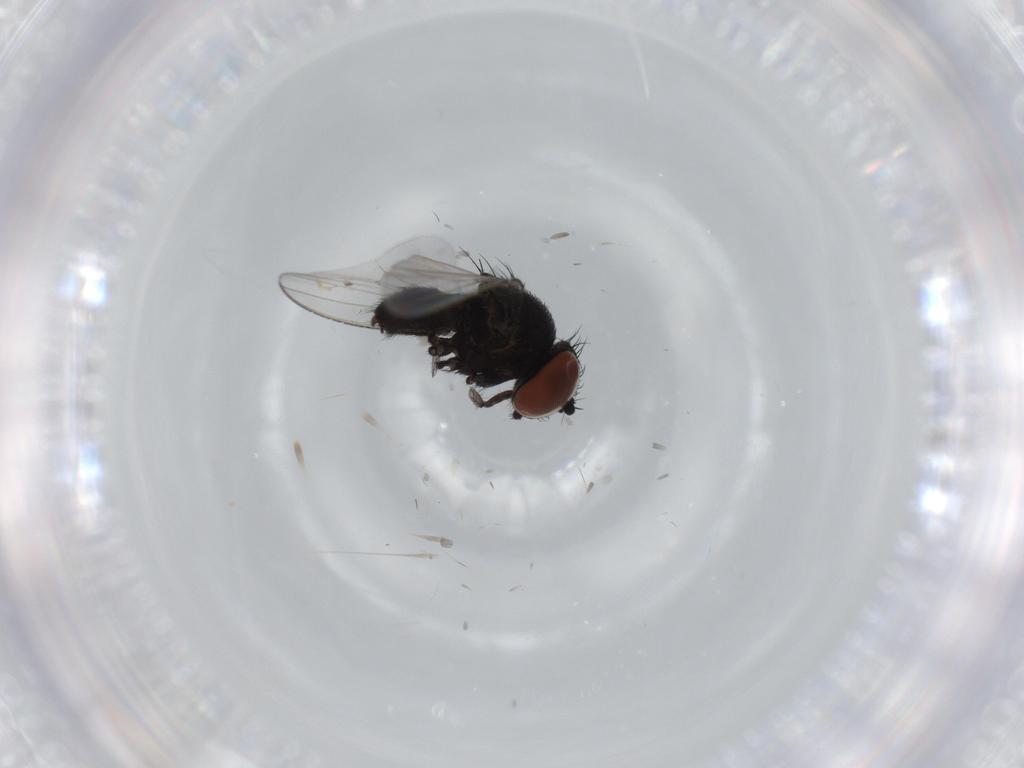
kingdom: Animalia
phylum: Arthropoda
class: Insecta
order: Diptera
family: Milichiidae
